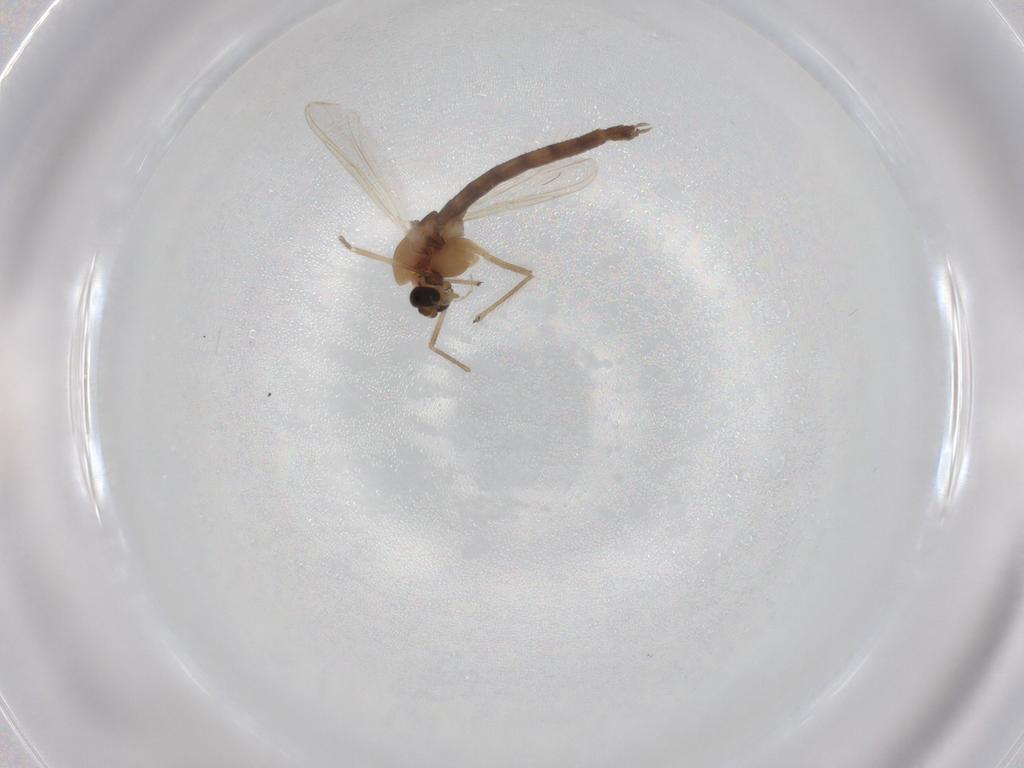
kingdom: Animalia
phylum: Arthropoda
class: Insecta
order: Diptera
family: Chironomidae
